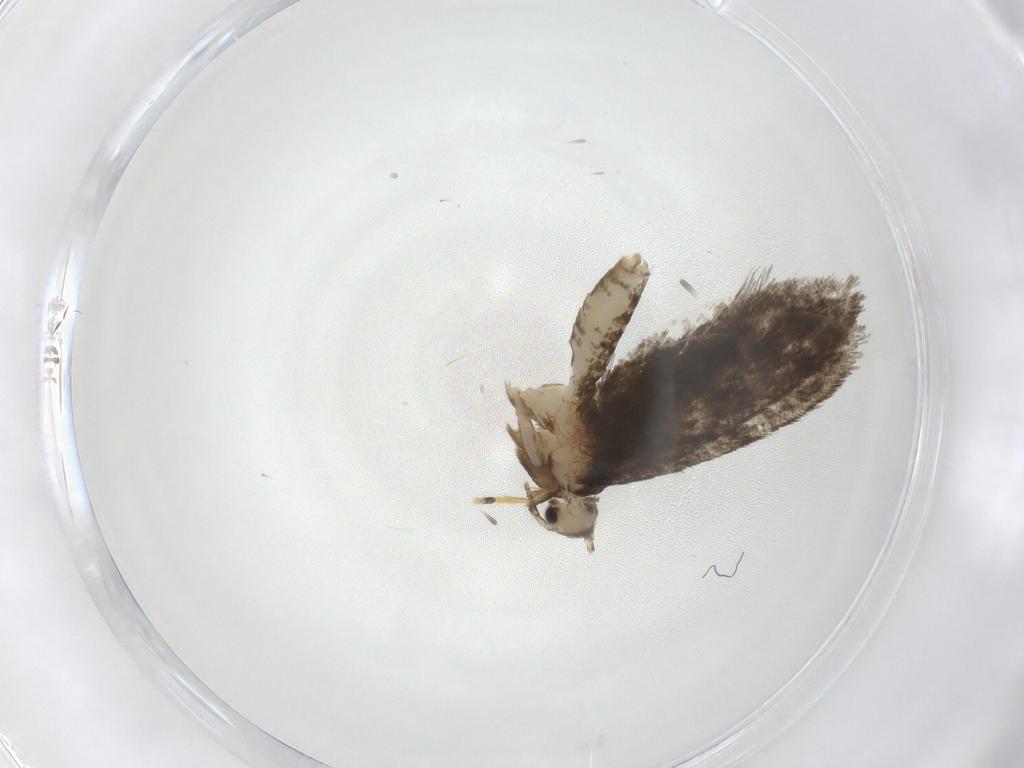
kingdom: Animalia
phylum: Arthropoda
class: Insecta
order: Lepidoptera
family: Psychidae
